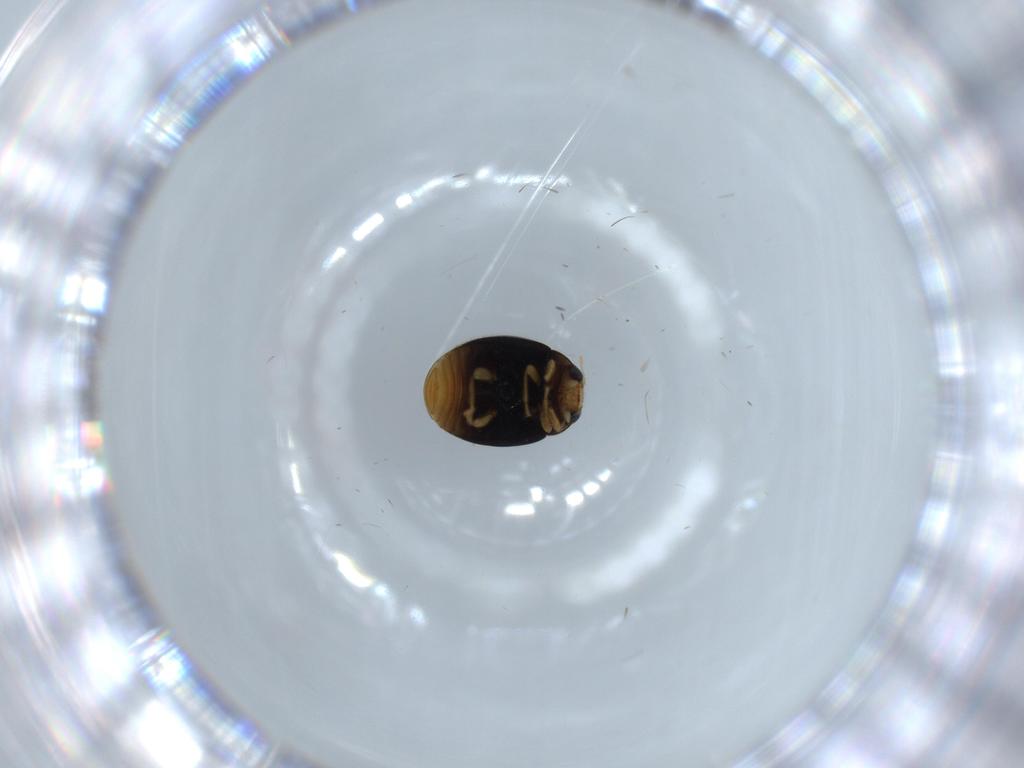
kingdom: Animalia
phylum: Arthropoda
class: Insecta
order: Coleoptera
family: Coccinellidae
